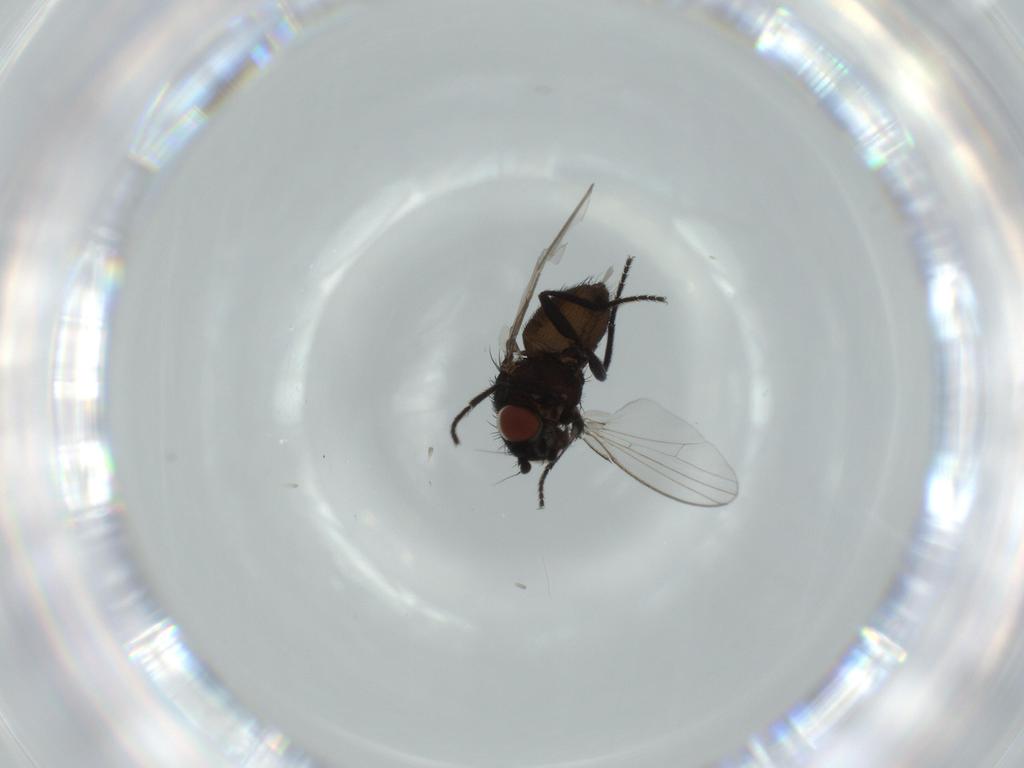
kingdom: Animalia
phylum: Arthropoda
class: Insecta
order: Diptera
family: Milichiidae
